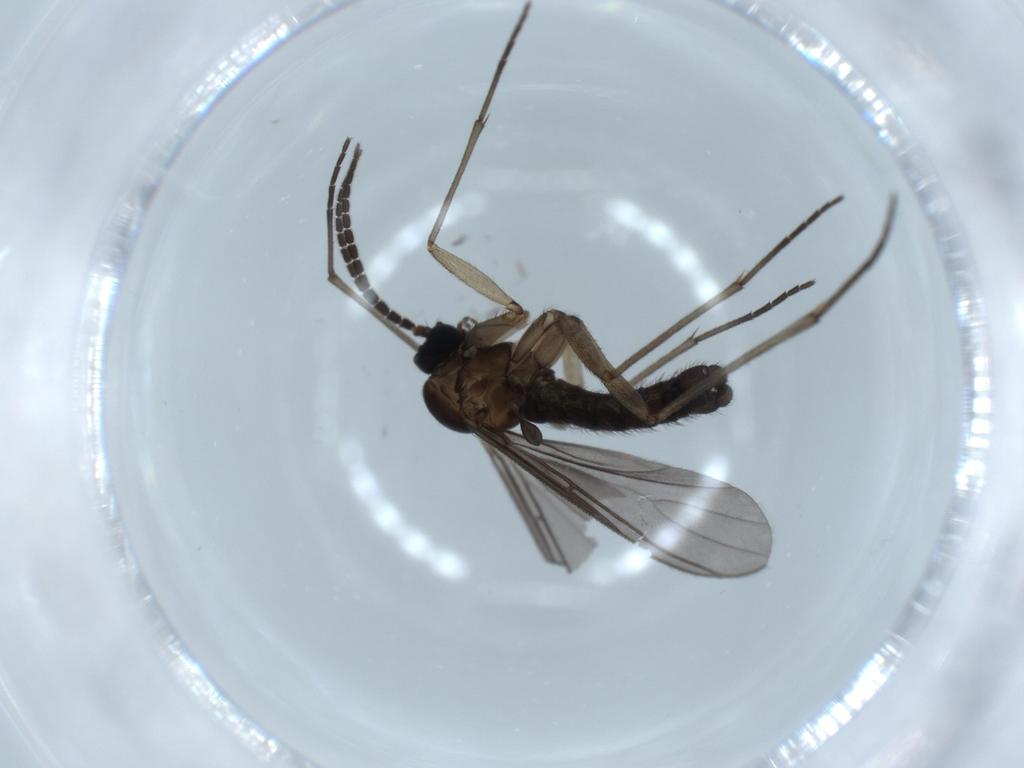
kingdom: Animalia
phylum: Arthropoda
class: Insecta
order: Diptera
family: Sciaridae
